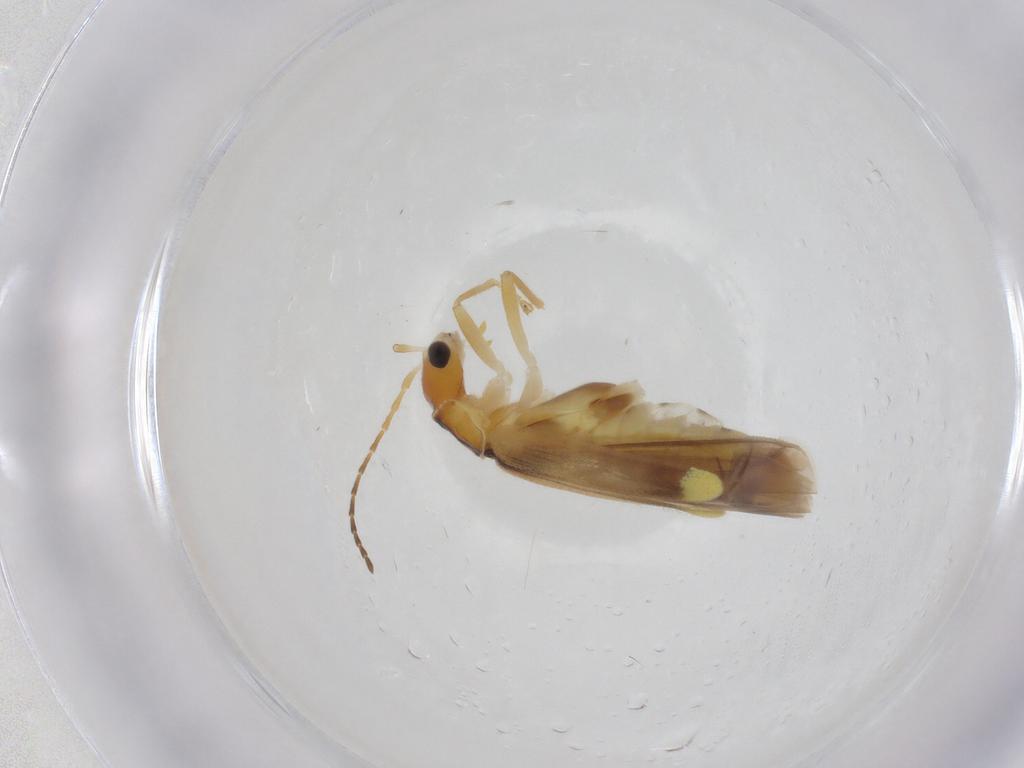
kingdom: Animalia
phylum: Arthropoda
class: Insecta
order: Coleoptera
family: Cantharidae
